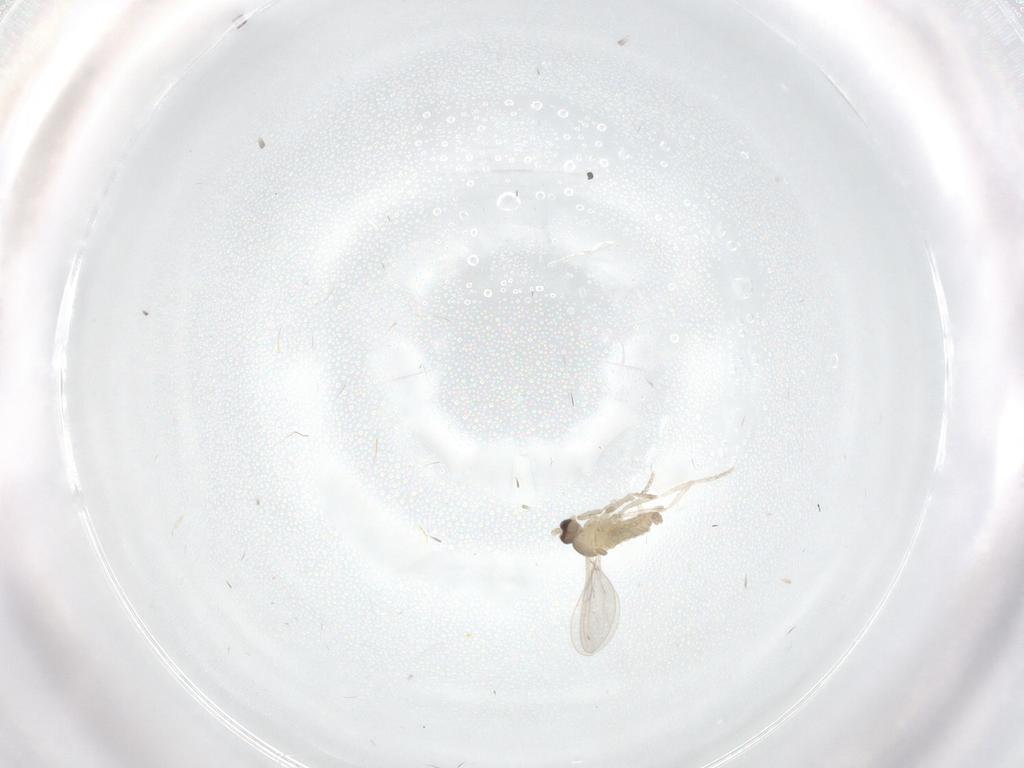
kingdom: Animalia
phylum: Arthropoda
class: Insecta
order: Diptera
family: Cecidomyiidae
